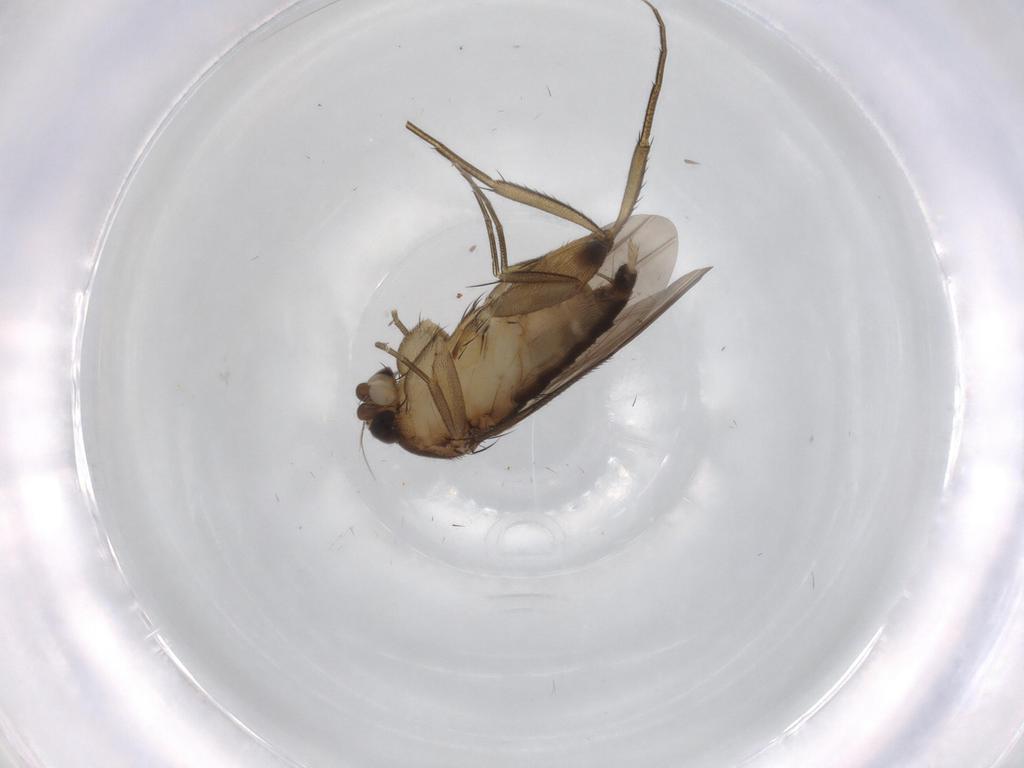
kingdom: Animalia
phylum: Arthropoda
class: Insecta
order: Diptera
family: Phoridae
